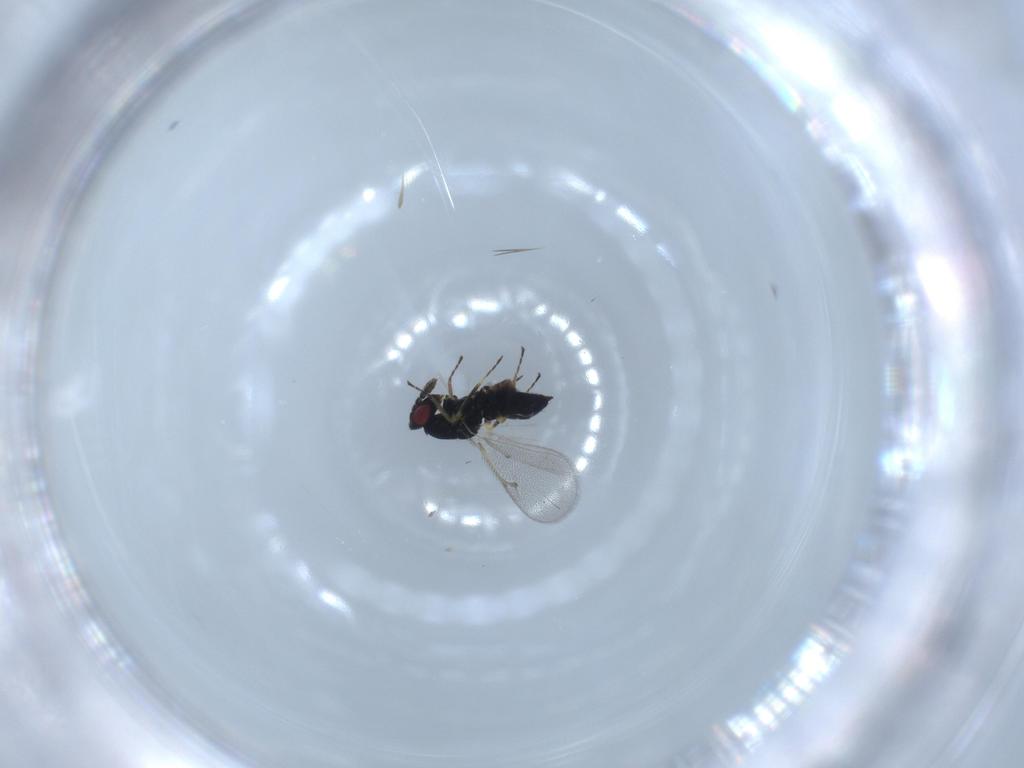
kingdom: Animalia
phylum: Arthropoda
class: Insecta
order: Hymenoptera
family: Eulophidae
